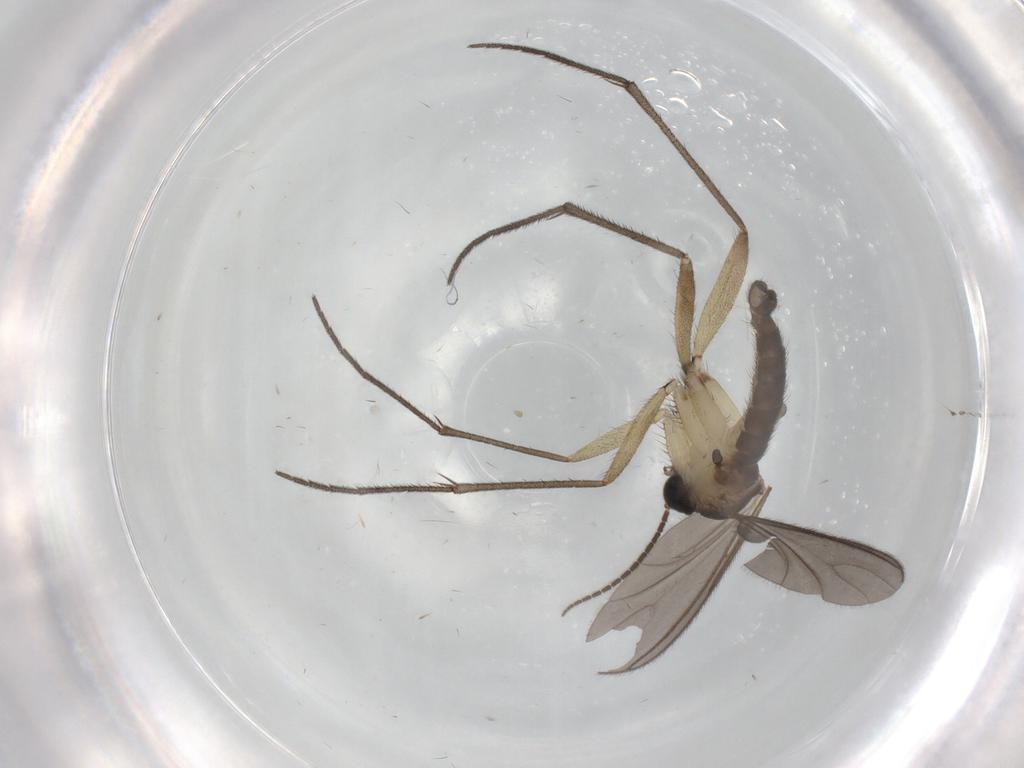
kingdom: Animalia
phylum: Arthropoda
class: Insecta
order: Diptera
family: Sciaridae
